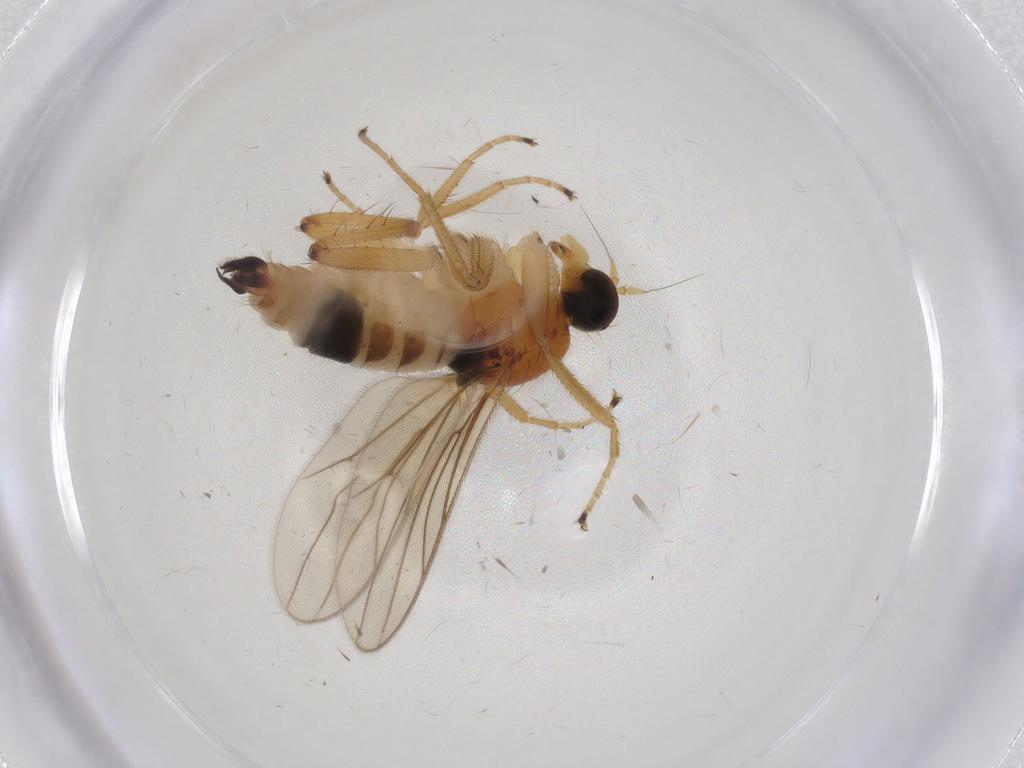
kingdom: Animalia
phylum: Arthropoda
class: Insecta
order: Diptera
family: Hybotidae
